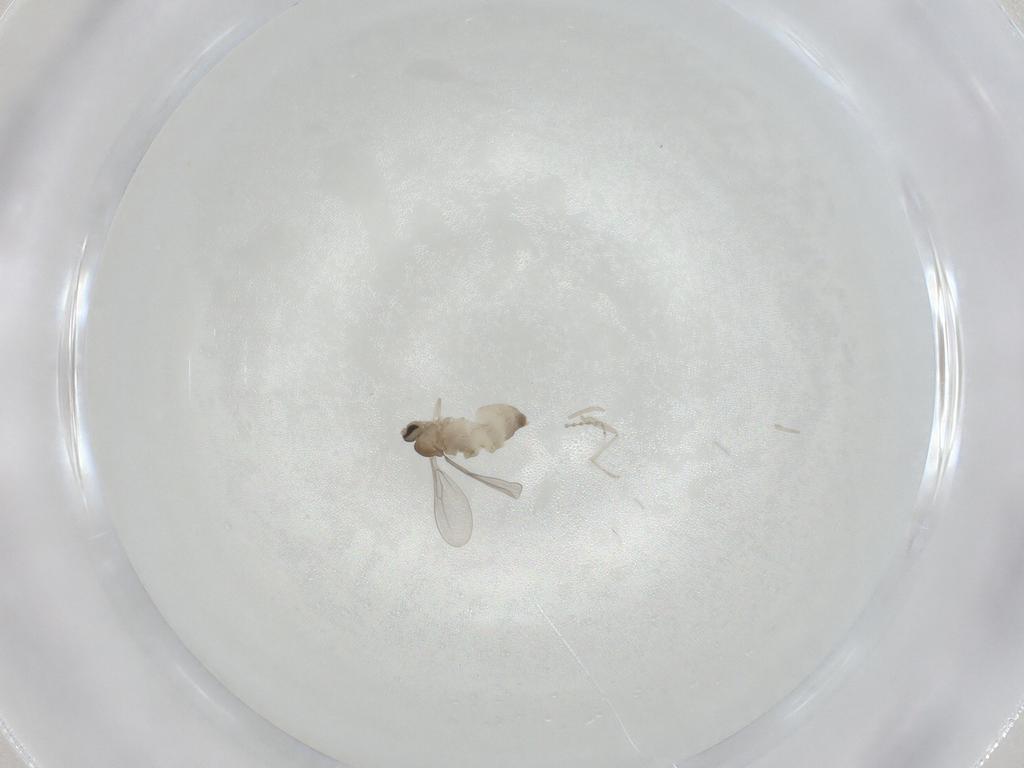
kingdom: Animalia
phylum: Arthropoda
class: Insecta
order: Diptera
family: Cecidomyiidae
